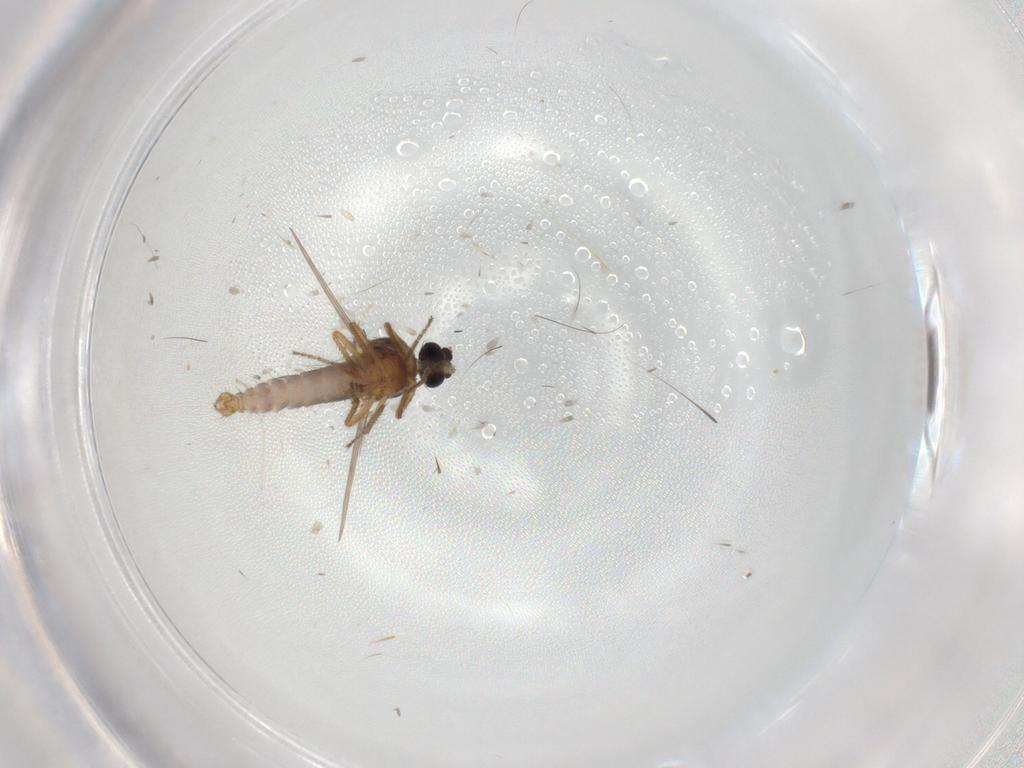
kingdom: Animalia
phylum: Arthropoda
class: Insecta
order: Diptera
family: Ceratopogonidae
